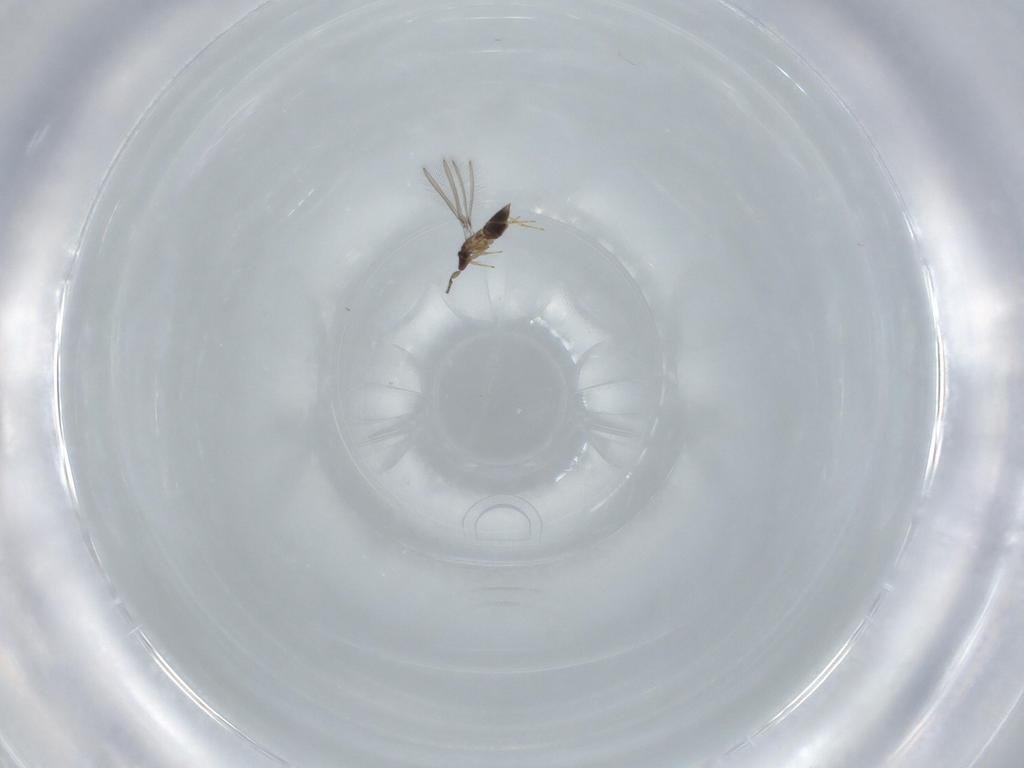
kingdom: Animalia
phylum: Arthropoda
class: Insecta
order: Hymenoptera
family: Mymaridae
